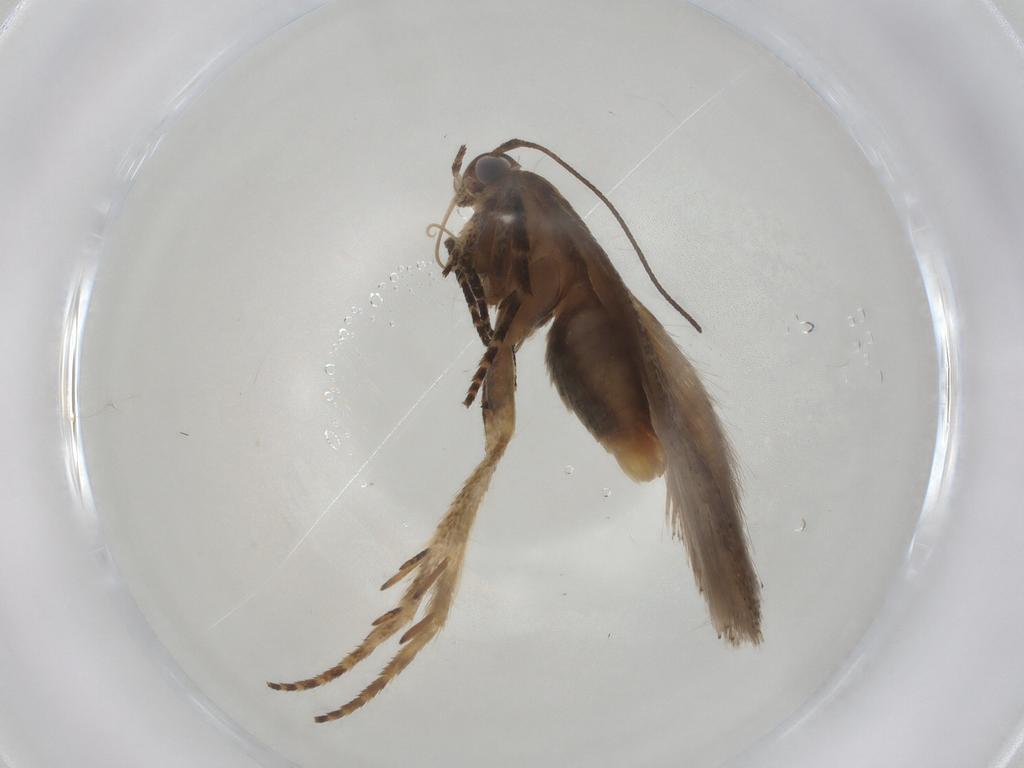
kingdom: Animalia
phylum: Arthropoda
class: Insecta
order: Lepidoptera
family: Gelechiidae
